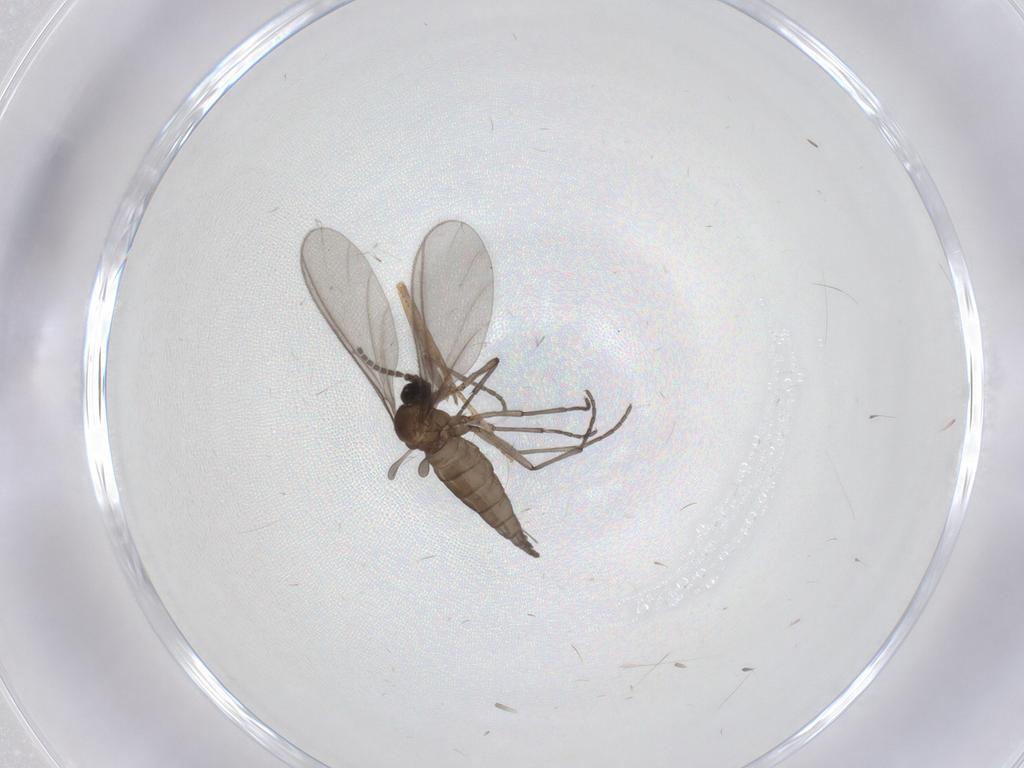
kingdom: Animalia
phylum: Arthropoda
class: Insecta
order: Diptera
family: Sciaridae
